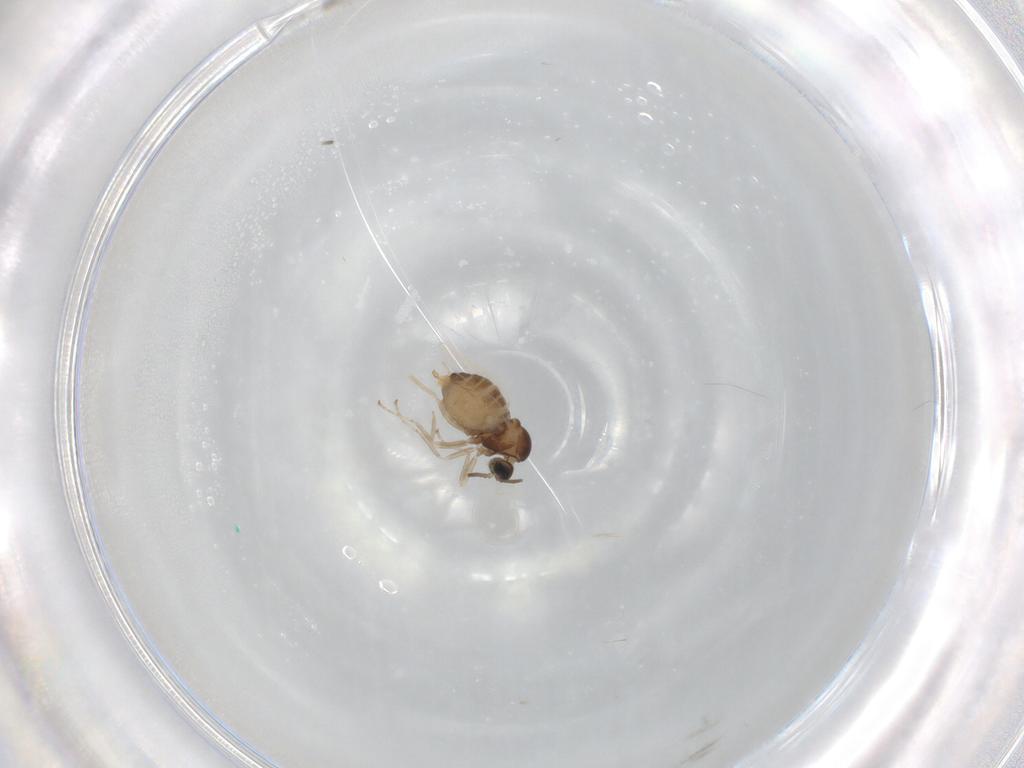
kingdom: Animalia
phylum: Arthropoda
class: Insecta
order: Diptera
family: Cecidomyiidae
